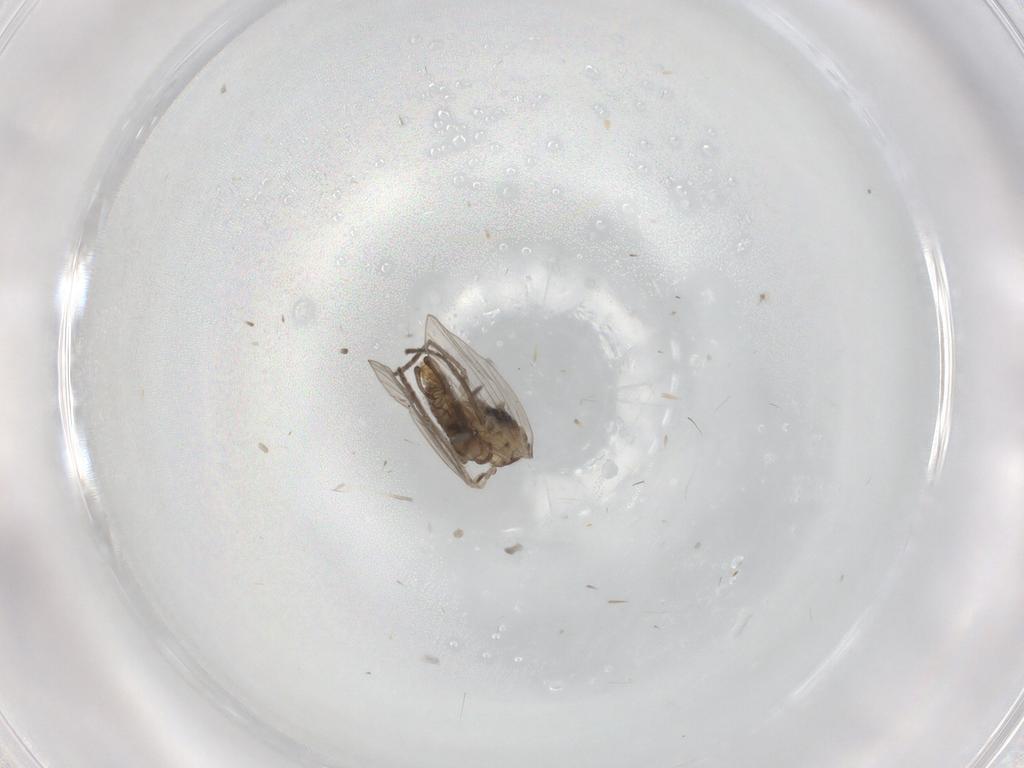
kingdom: Animalia
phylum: Arthropoda
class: Insecta
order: Diptera
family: Drosophilidae
